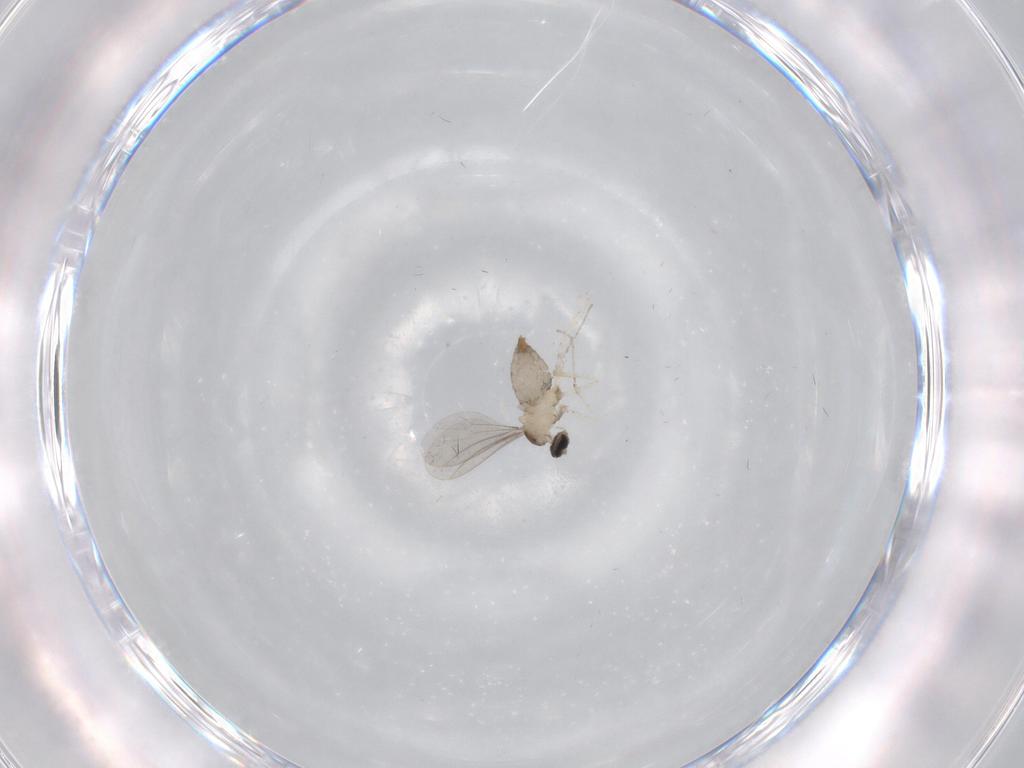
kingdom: Animalia
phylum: Arthropoda
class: Insecta
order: Diptera
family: Cecidomyiidae
